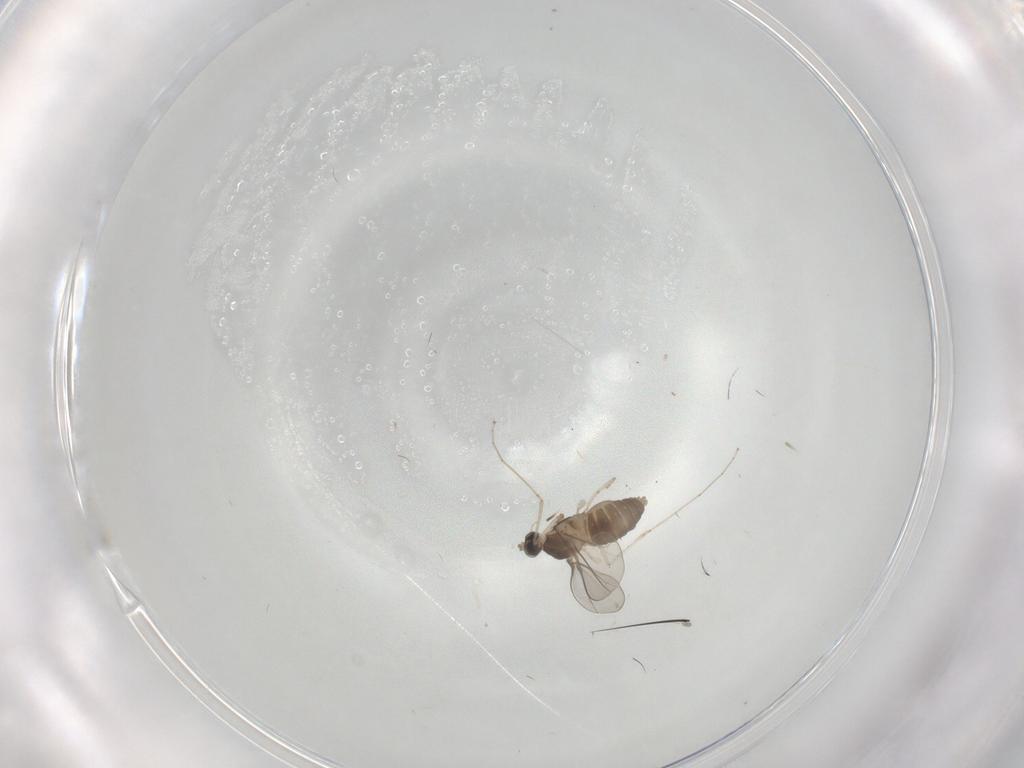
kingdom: Animalia
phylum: Arthropoda
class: Insecta
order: Diptera
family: Cecidomyiidae
